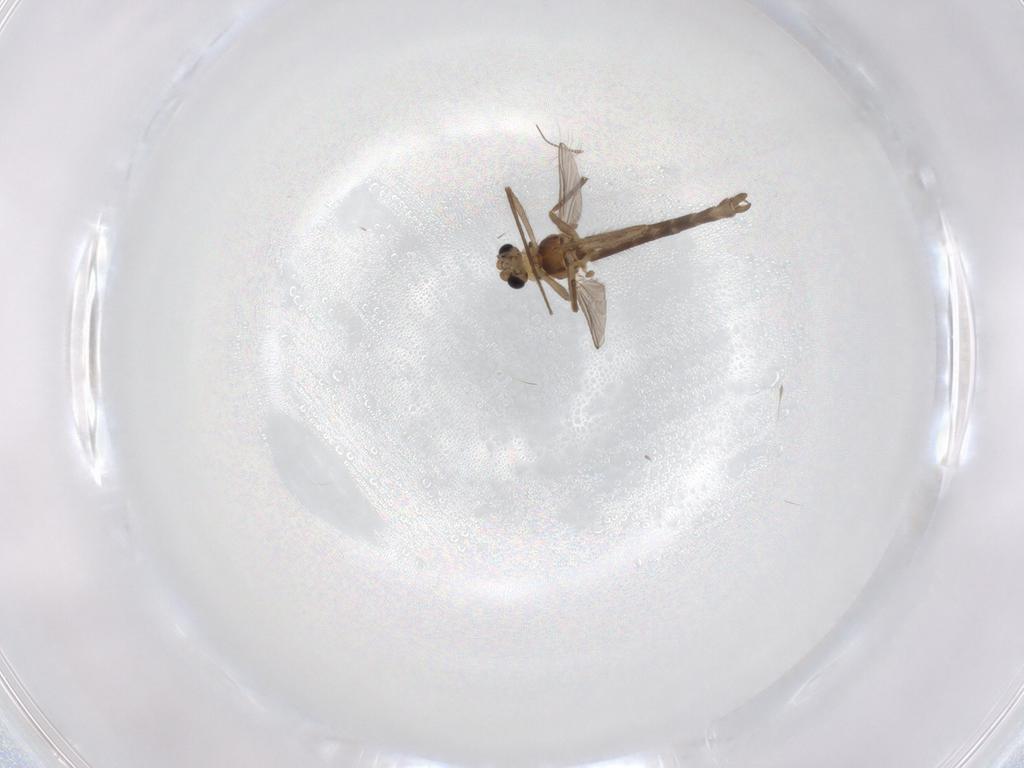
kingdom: Animalia
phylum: Arthropoda
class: Insecta
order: Diptera
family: Chironomidae
